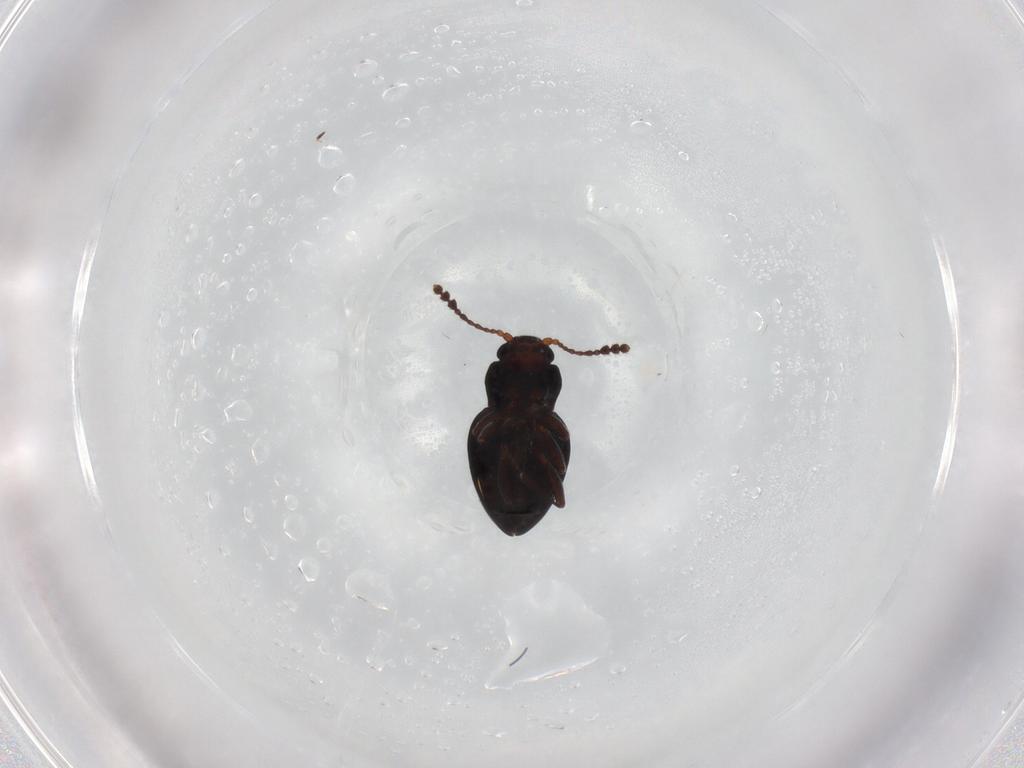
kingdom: Animalia
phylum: Arthropoda
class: Insecta
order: Coleoptera
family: Erotylidae
